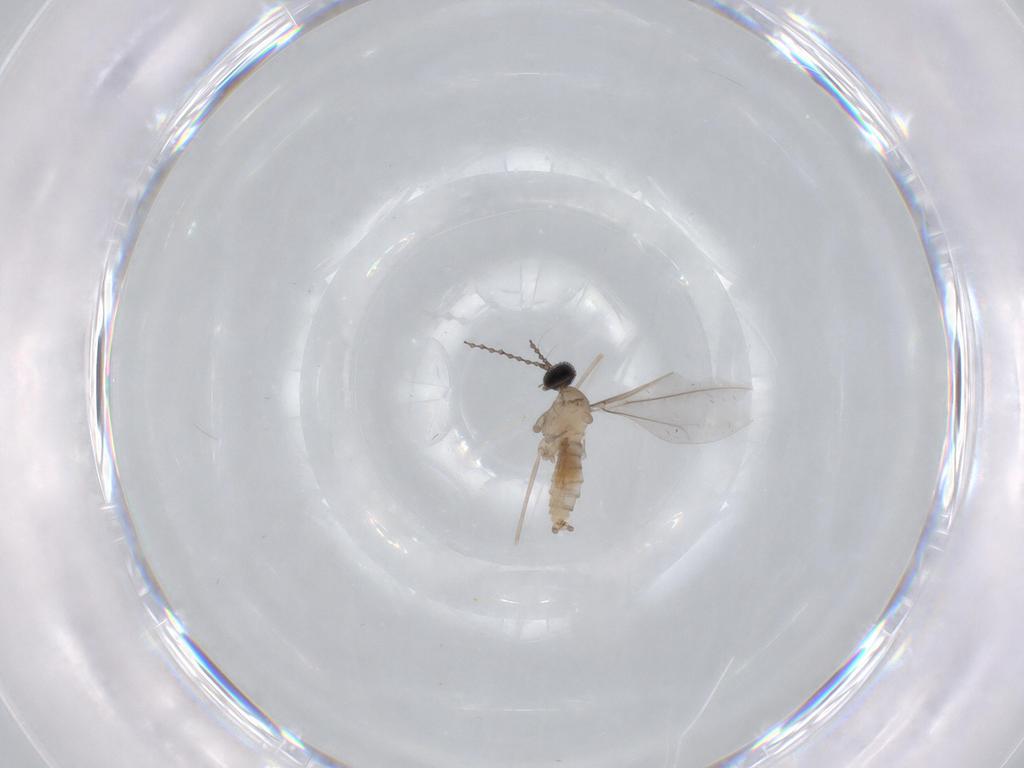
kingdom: Animalia
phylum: Arthropoda
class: Insecta
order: Diptera
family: Cecidomyiidae
